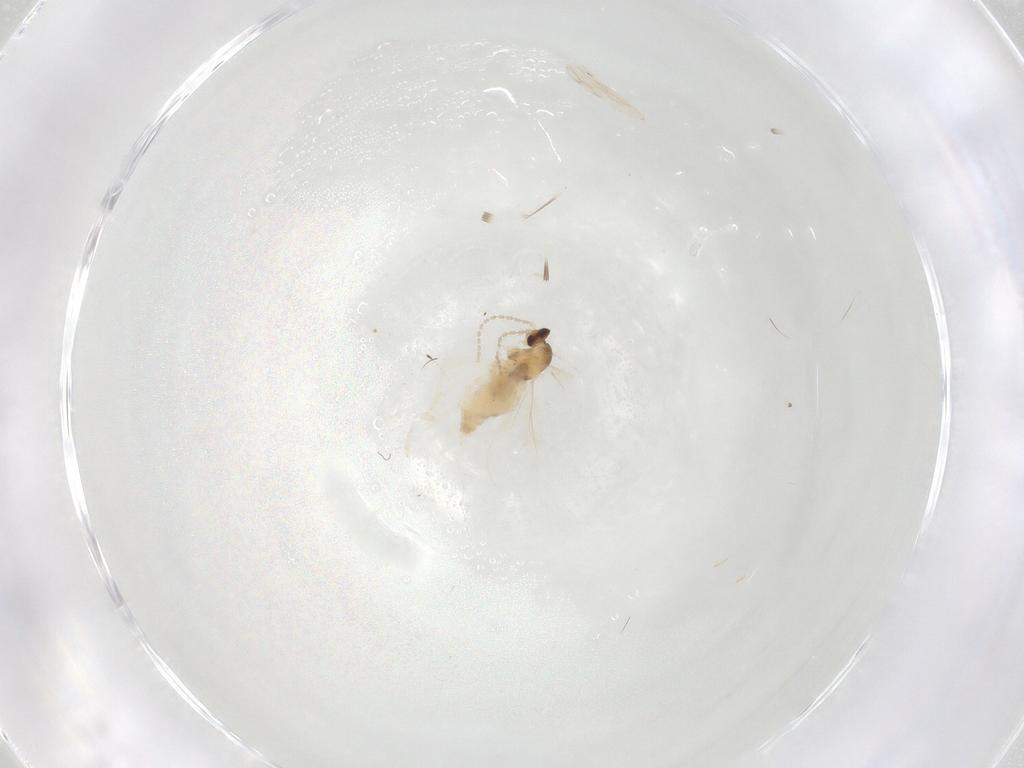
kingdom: Animalia
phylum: Arthropoda
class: Insecta
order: Diptera
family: Cecidomyiidae
